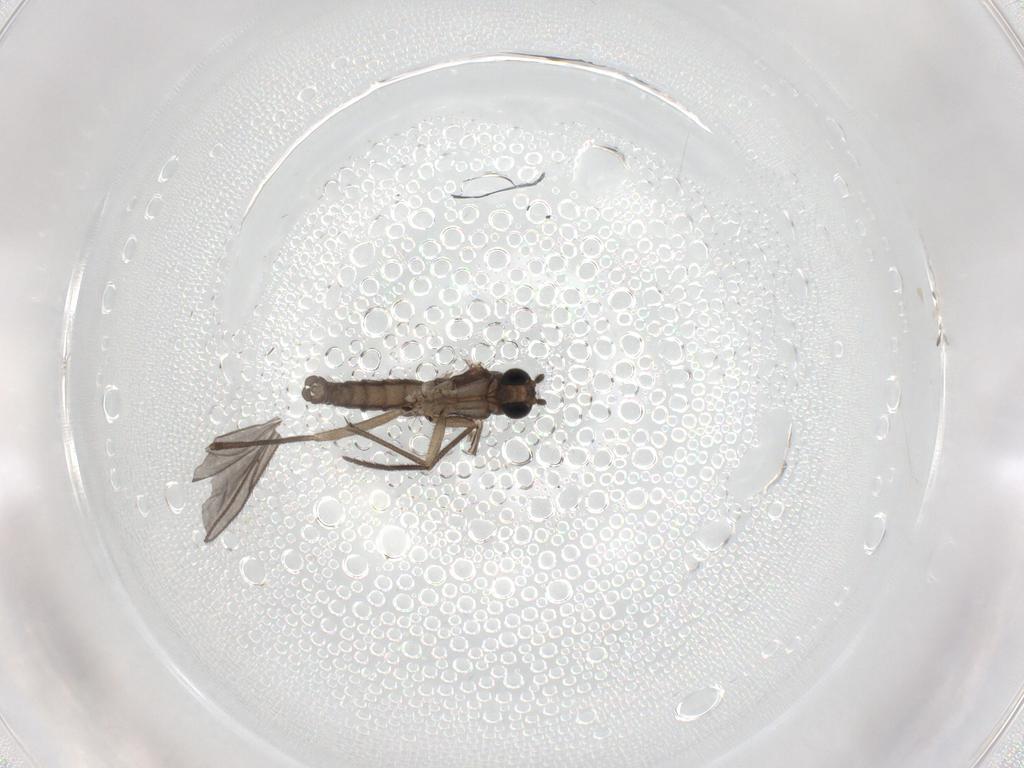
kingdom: Animalia
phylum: Arthropoda
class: Insecta
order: Diptera
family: Sciaridae
